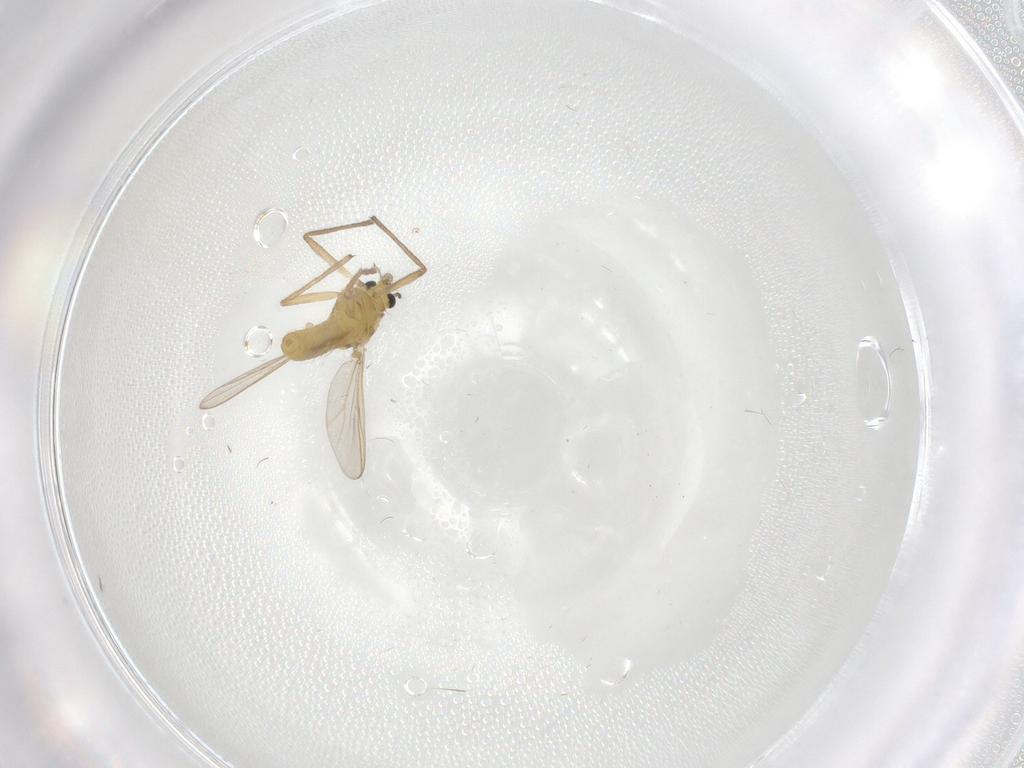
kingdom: Animalia
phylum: Arthropoda
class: Insecta
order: Diptera
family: Chironomidae
